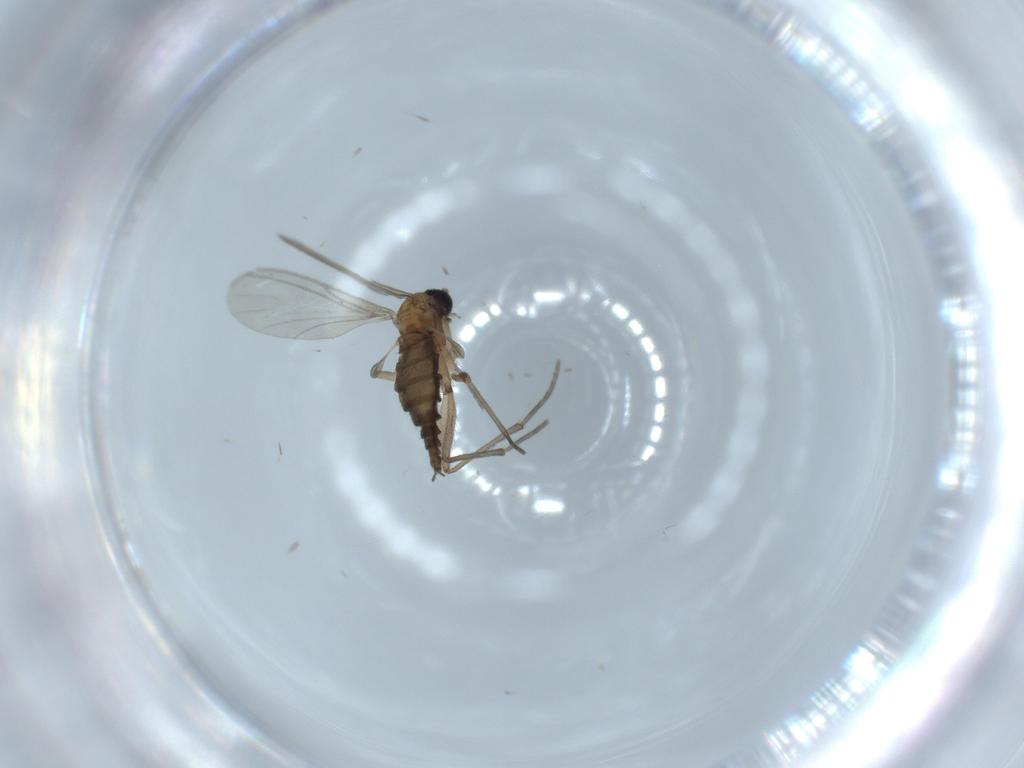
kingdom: Animalia
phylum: Arthropoda
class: Insecta
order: Diptera
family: Sciaridae
